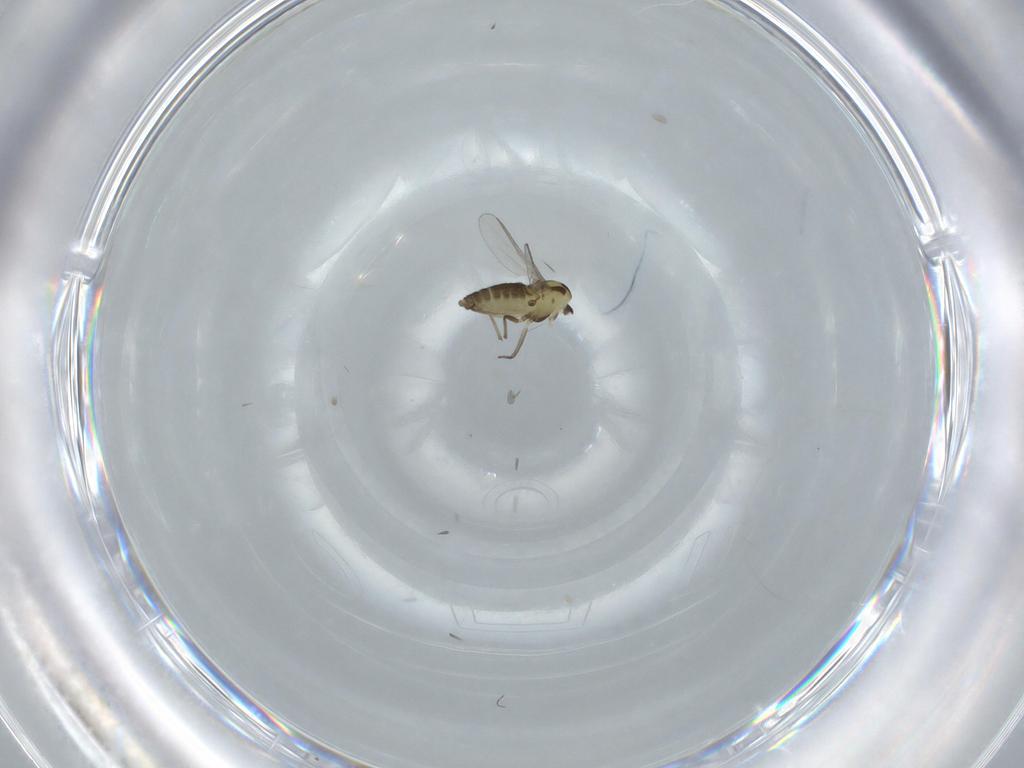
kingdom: Animalia
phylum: Arthropoda
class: Insecta
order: Diptera
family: Chironomidae
